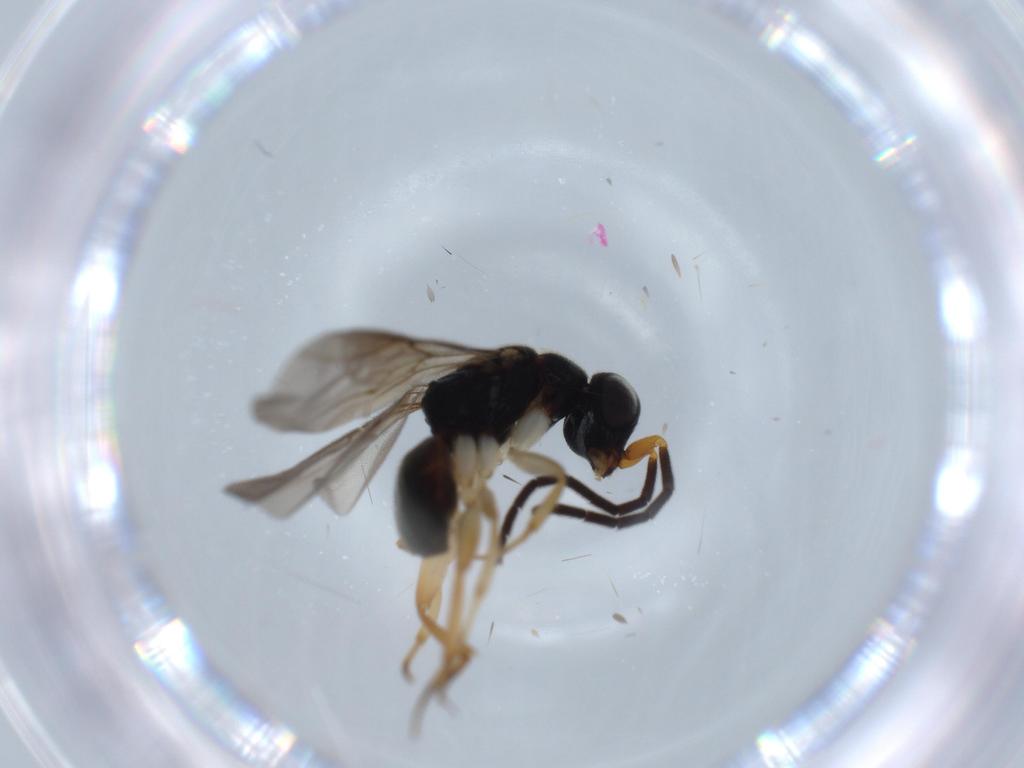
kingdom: Animalia
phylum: Arthropoda
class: Insecta
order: Hymenoptera
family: Chrysididae
